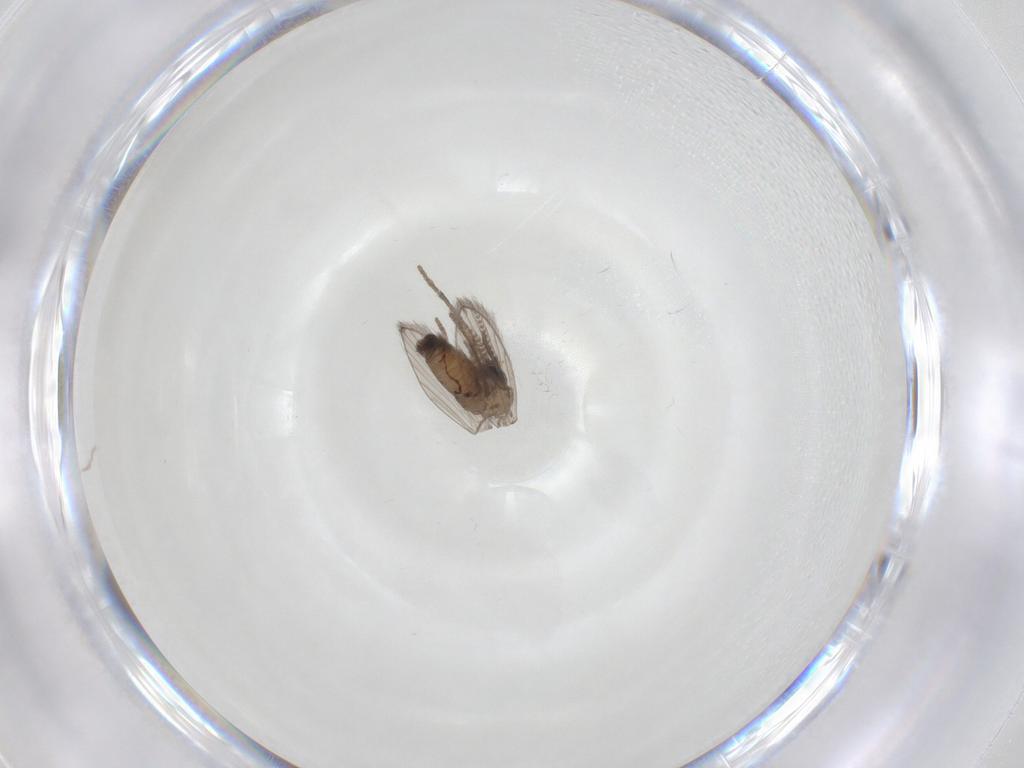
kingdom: Animalia
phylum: Arthropoda
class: Insecta
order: Diptera
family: Psychodidae
